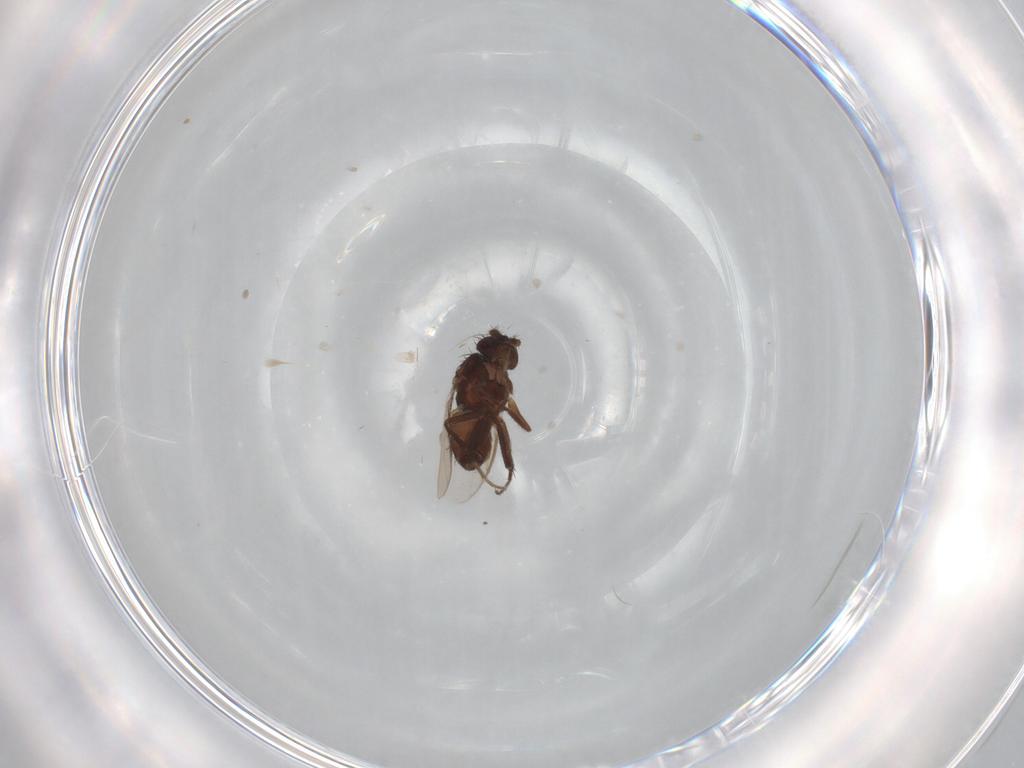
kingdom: Animalia
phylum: Arthropoda
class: Insecta
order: Diptera
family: Sphaeroceridae
